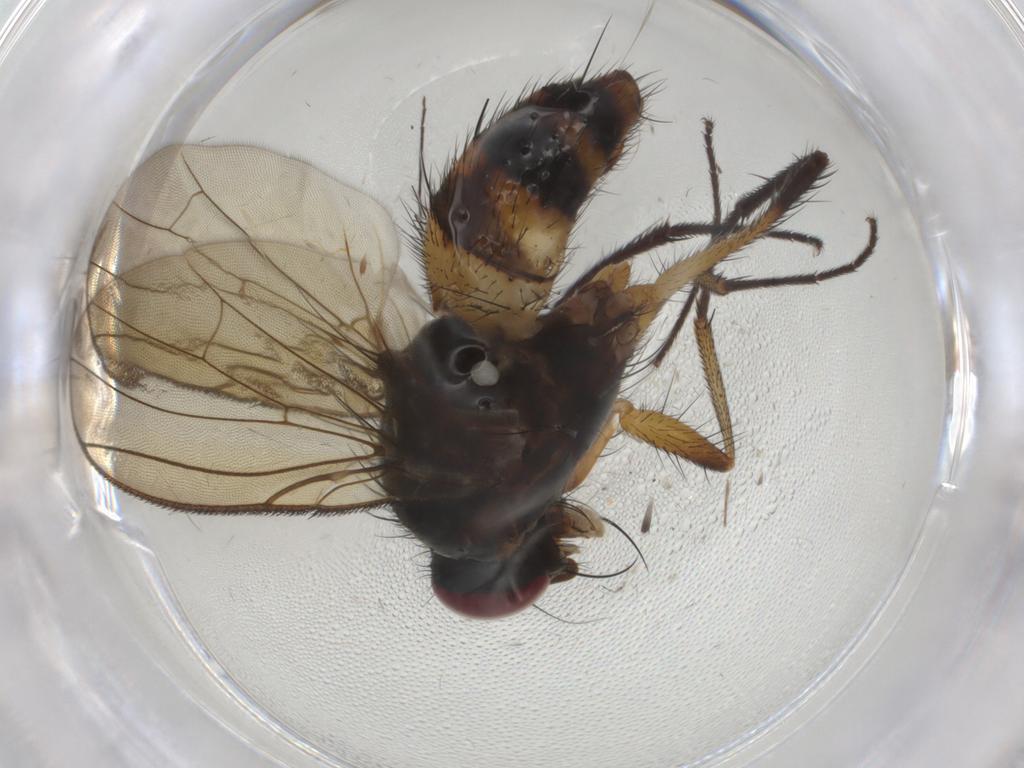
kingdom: Animalia
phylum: Arthropoda
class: Insecta
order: Diptera
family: Anthomyiidae
